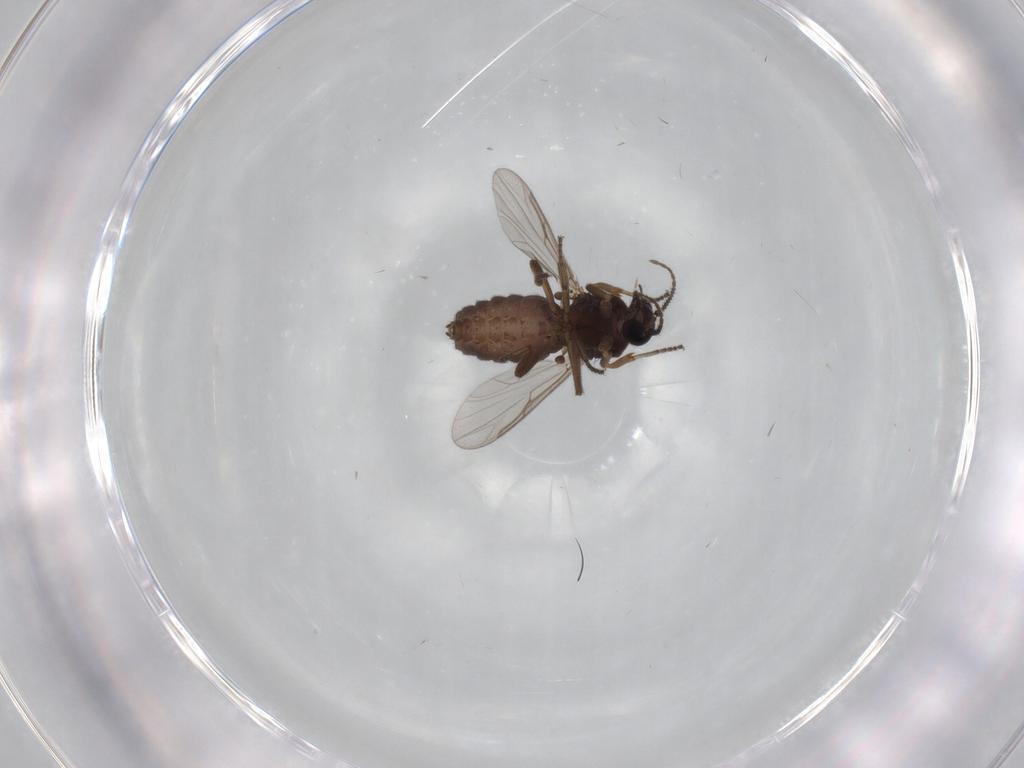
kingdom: Animalia
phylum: Arthropoda
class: Insecta
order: Diptera
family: Ceratopogonidae
